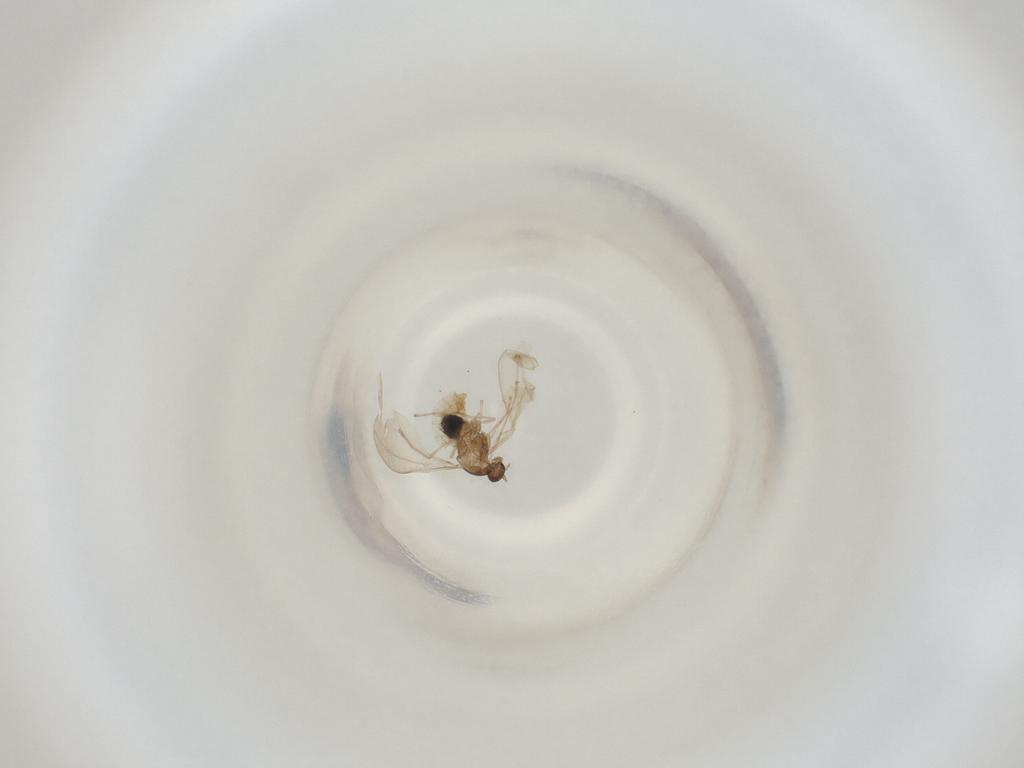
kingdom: Animalia
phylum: Arthropoda
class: Insecta
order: Diptera
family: Cecidomyiidae
